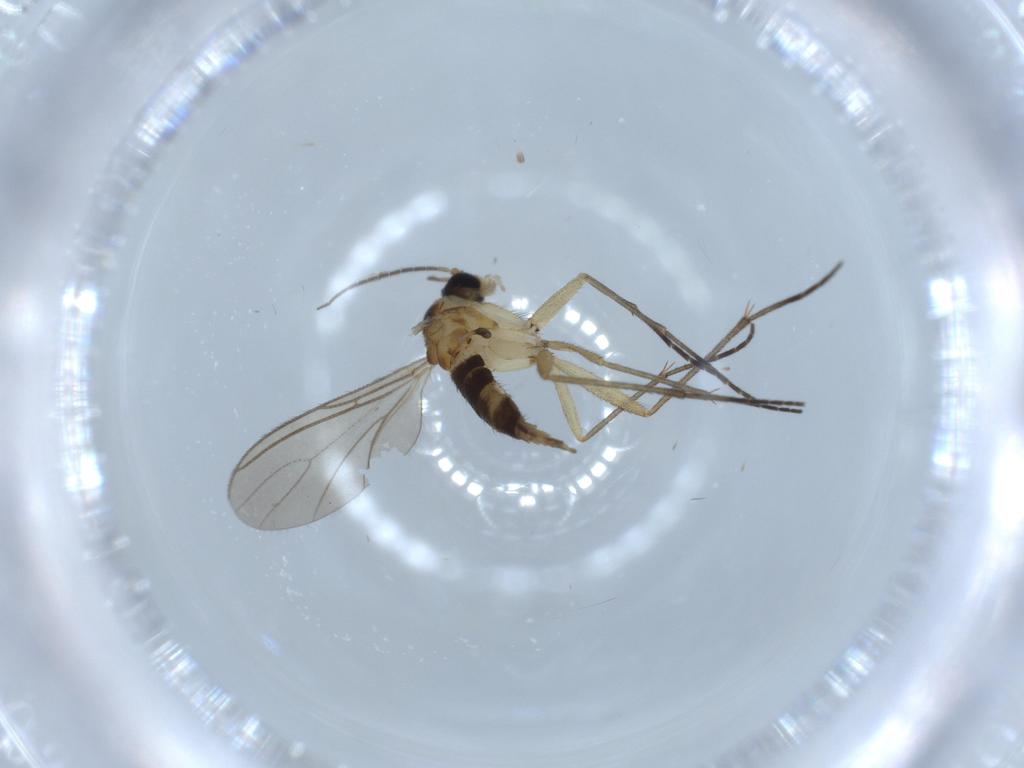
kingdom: Animalia
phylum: Arthropoda
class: Insecta
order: Diptera
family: Sciaridae
